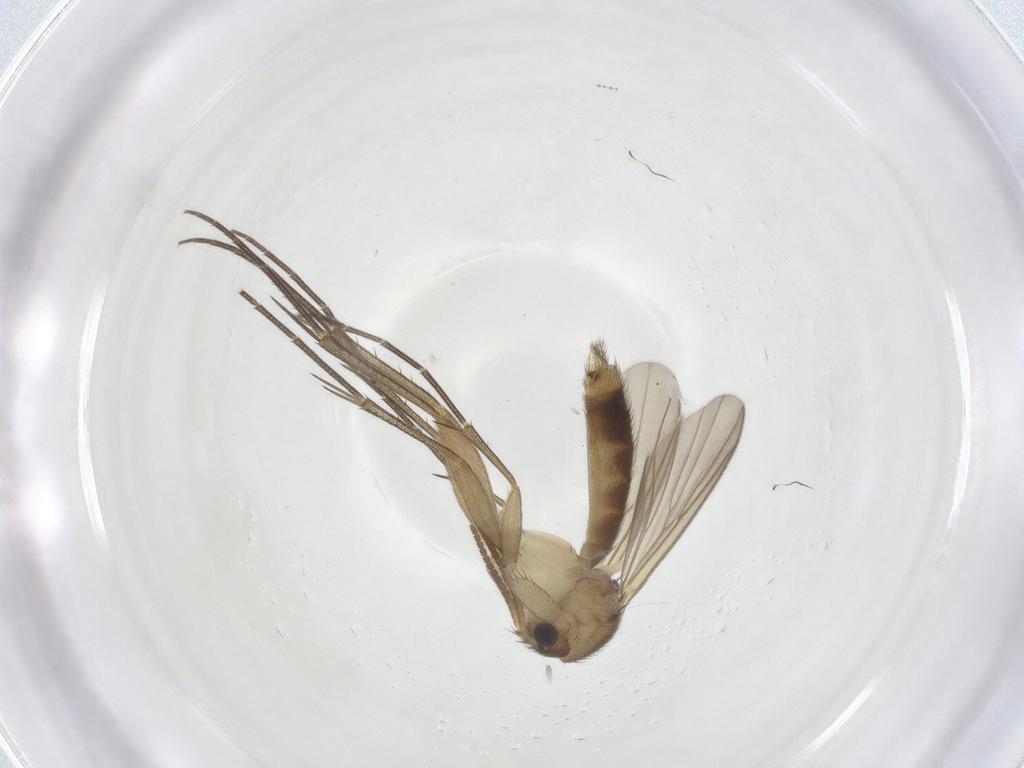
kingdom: Animalia
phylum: Arthropoda
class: Insecta
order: Diptera
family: Mycetophilidae
